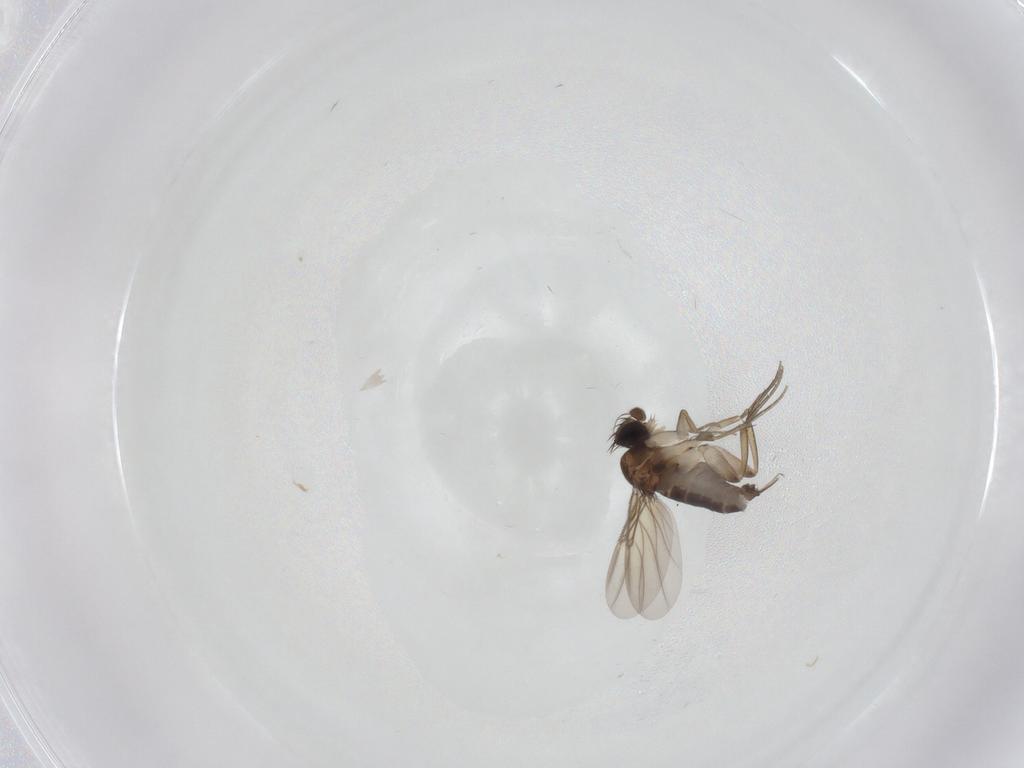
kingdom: Animalia
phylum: Arthropoda
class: Insecta
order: Diptera
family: Phoridae
